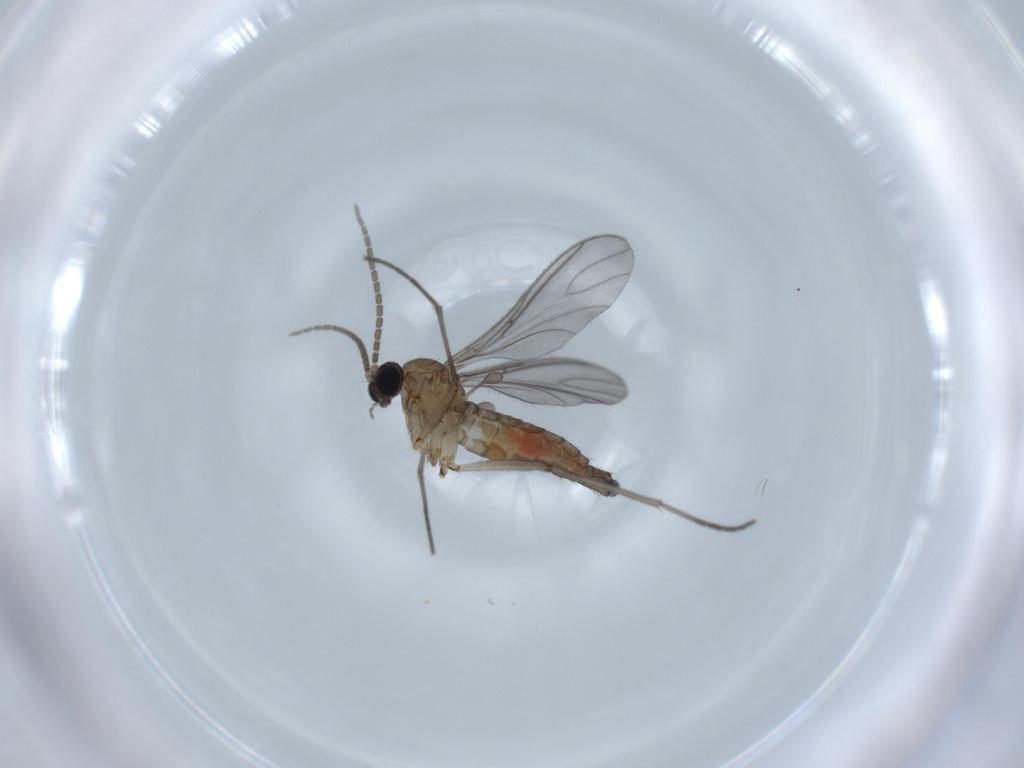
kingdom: Animalia
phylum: Arthropoda
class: Insecta
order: Diptera
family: Sciaridae
